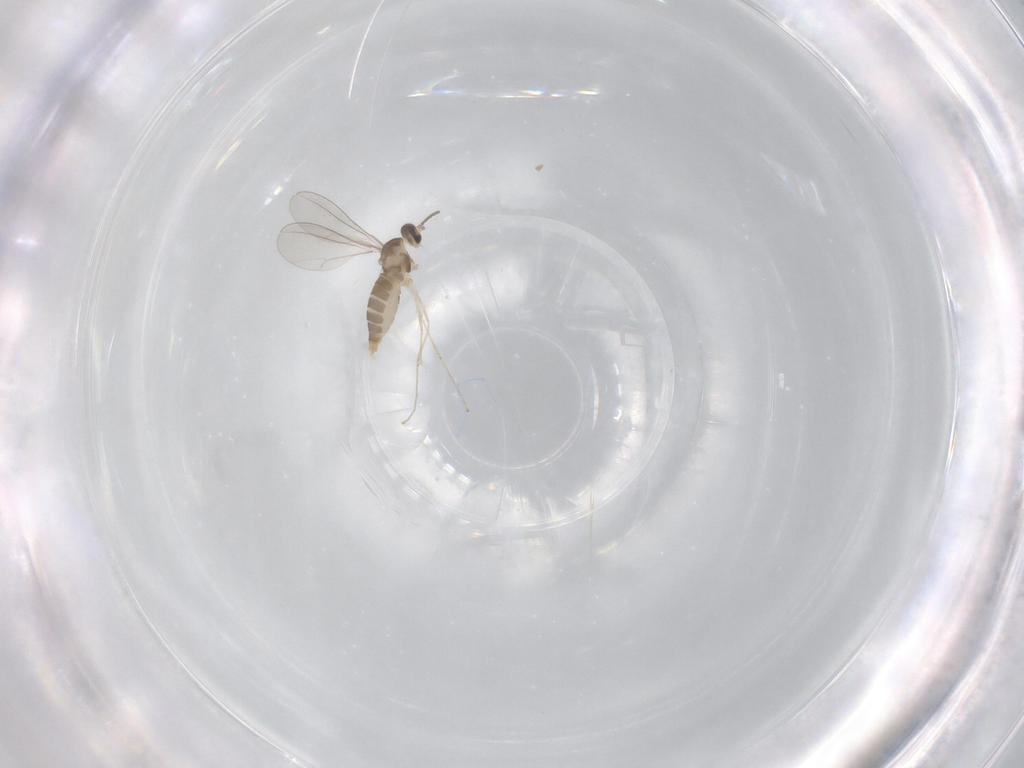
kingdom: Animalia
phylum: Arthropoda
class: Insecta
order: Diptera
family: Cecidomyiidae
